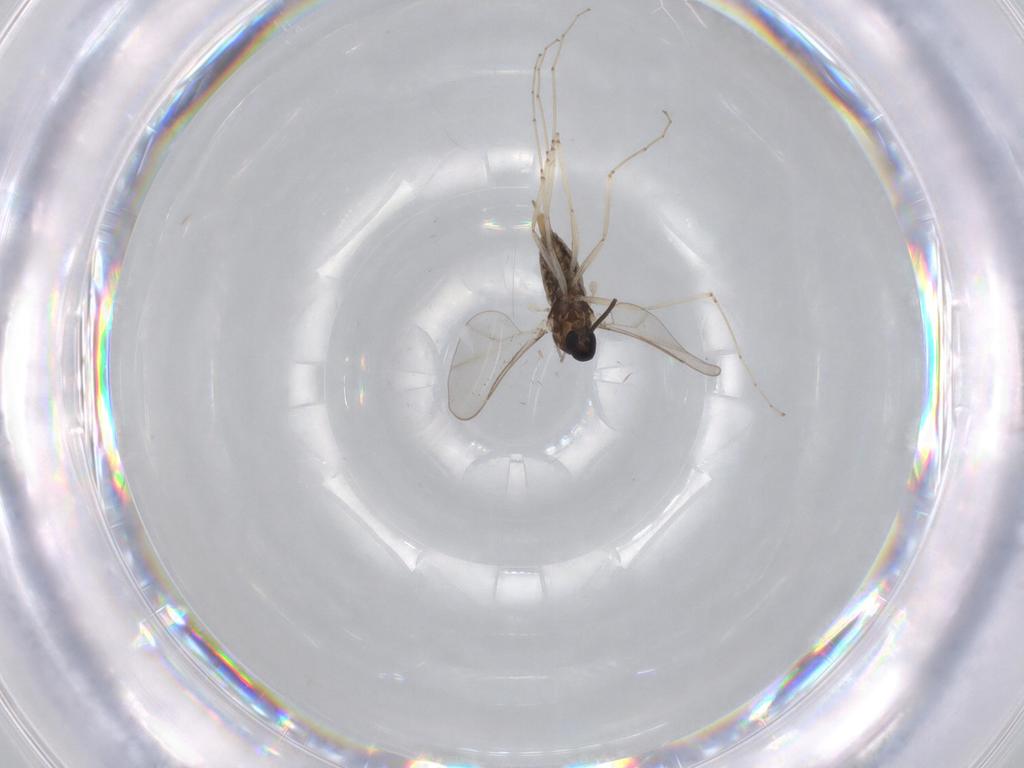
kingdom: Animalia
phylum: Arthropoda
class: Insecta
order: Diptera
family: Cecidomyiidae
